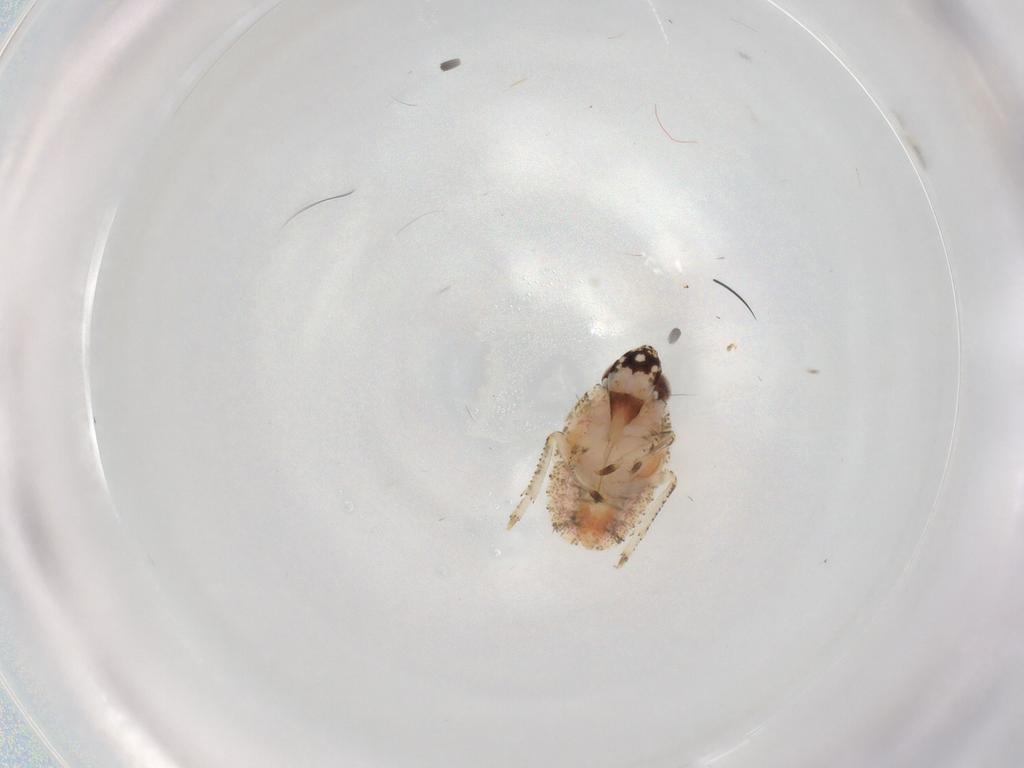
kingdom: Animalia
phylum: Arthropoda
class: Insecta
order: Hemiptera
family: Gengidae
